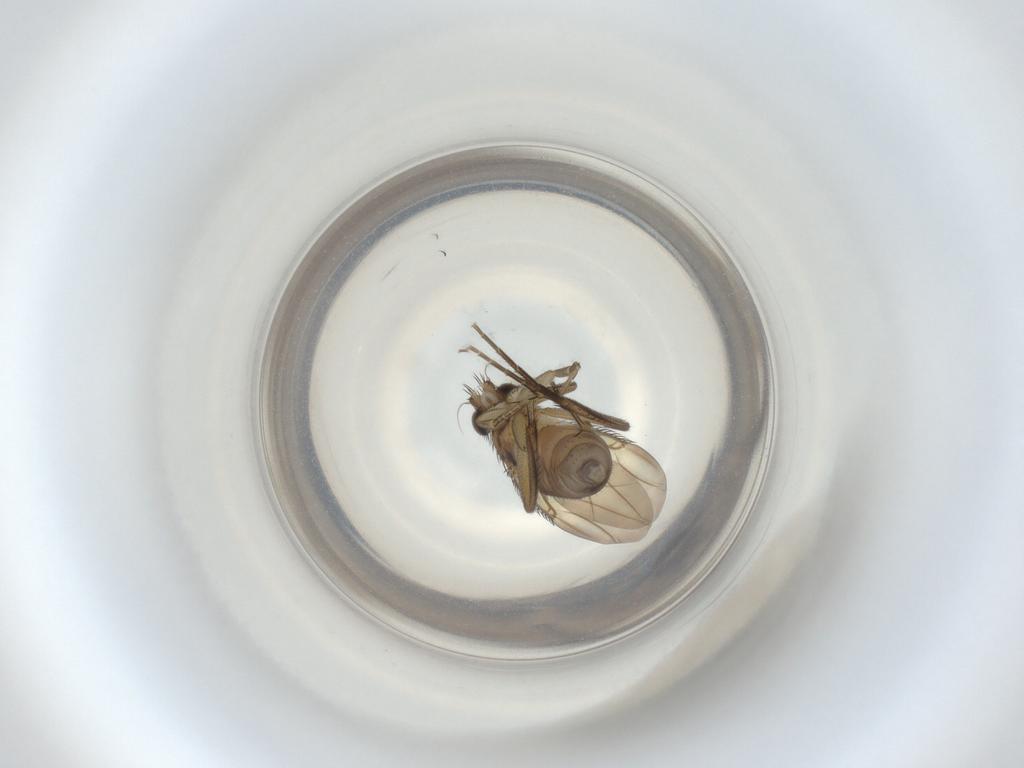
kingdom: Animalia
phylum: Arthropoda
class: Insecta
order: Diptera
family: Phoridae
